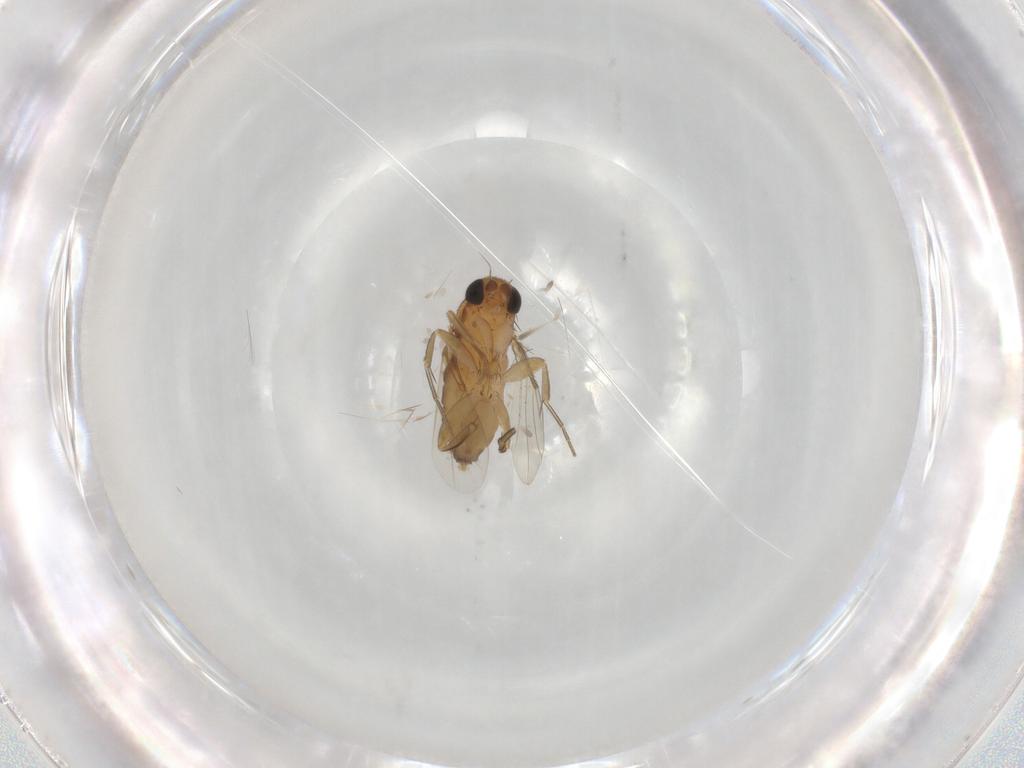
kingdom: Animalia
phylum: Arthropoda
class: Insecta
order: Diptera
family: Phoridae
